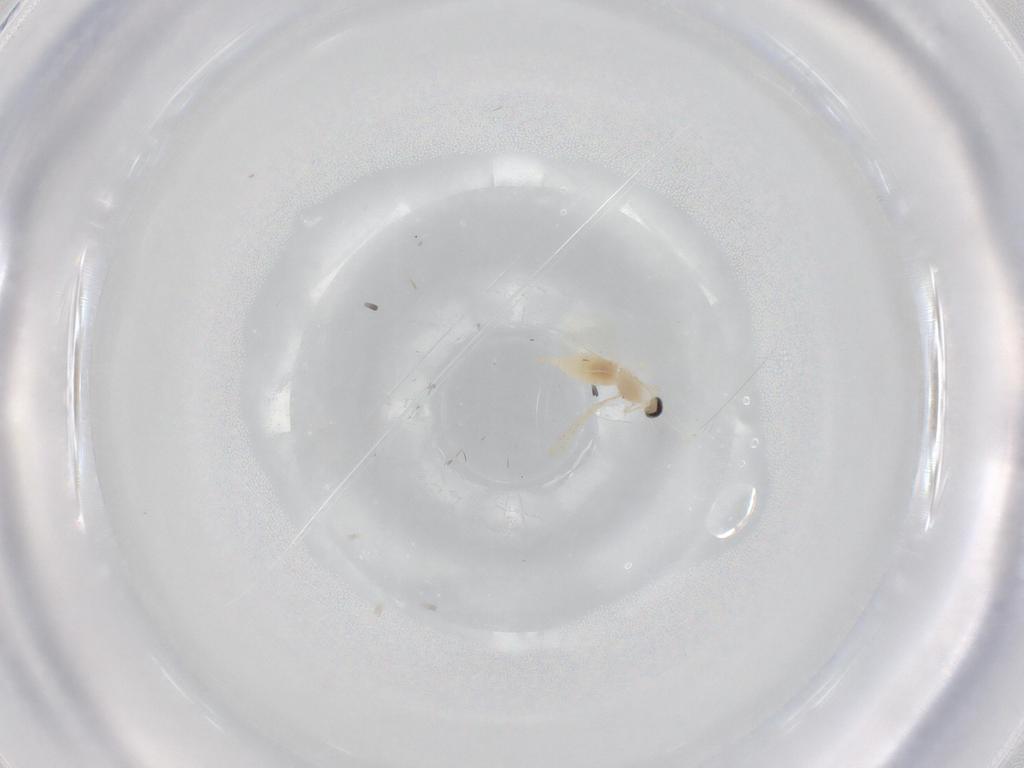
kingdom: Animalia
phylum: Arthropoda
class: Insecta
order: Diptera
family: Cecidomyiidae
